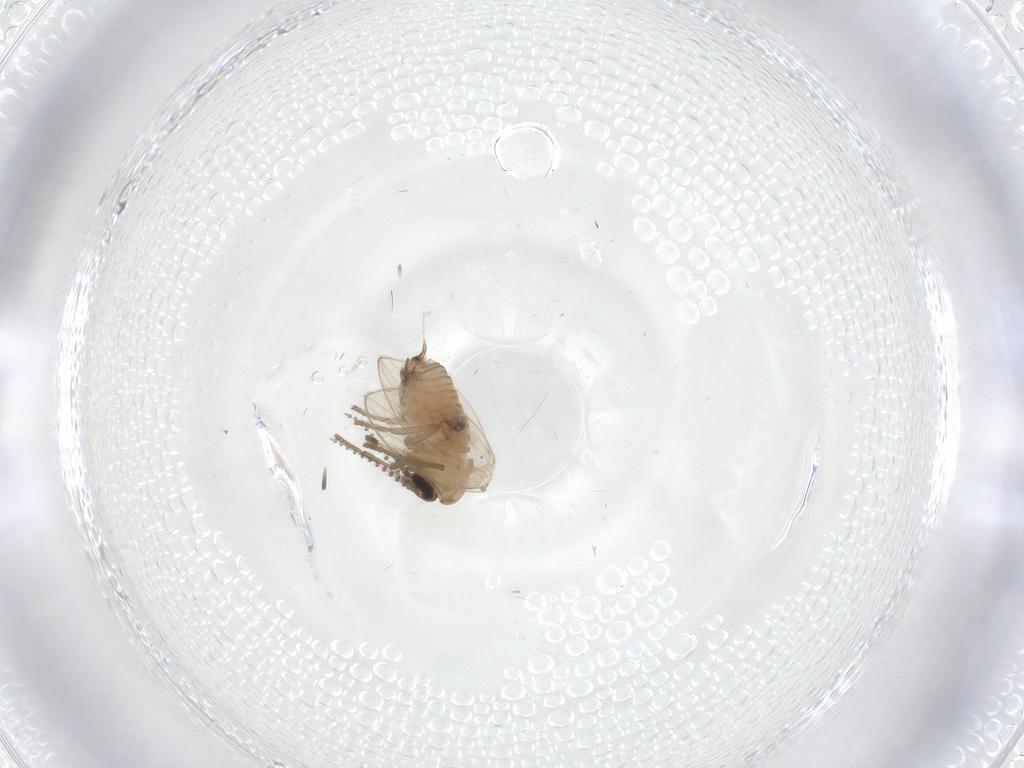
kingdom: Animalia
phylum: Arthropoda
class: Insecta
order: Diptera
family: Psychodidae
